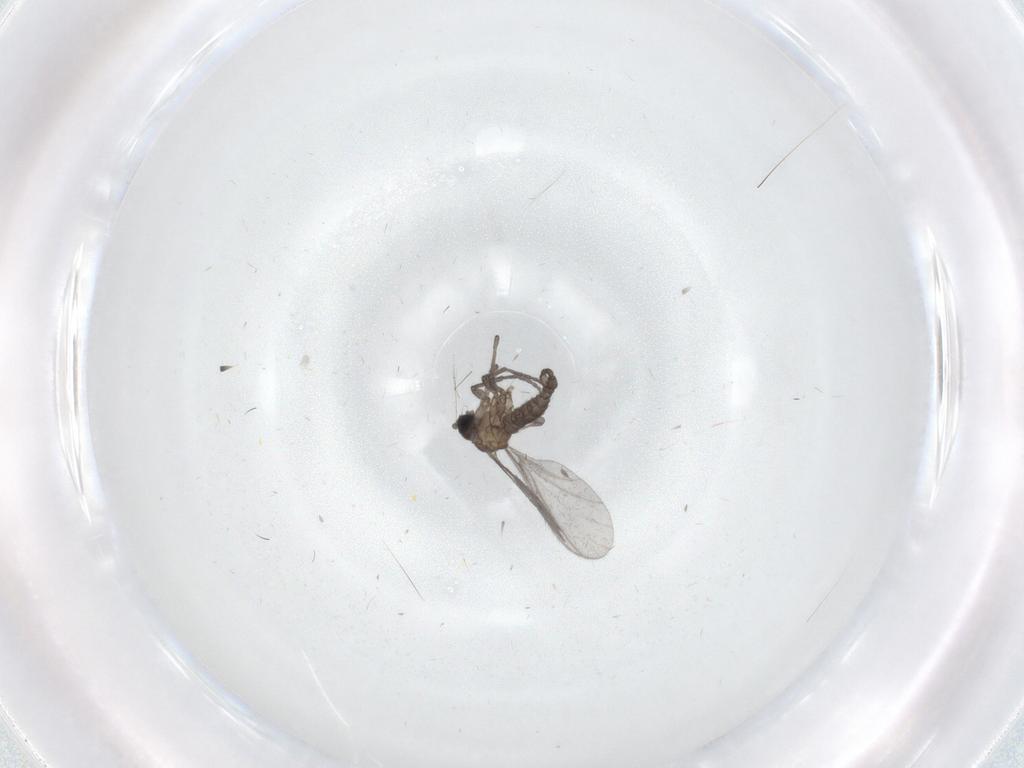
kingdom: Animalia
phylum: Arthropoda
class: Insecta
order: Diptera
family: Sciaridae
